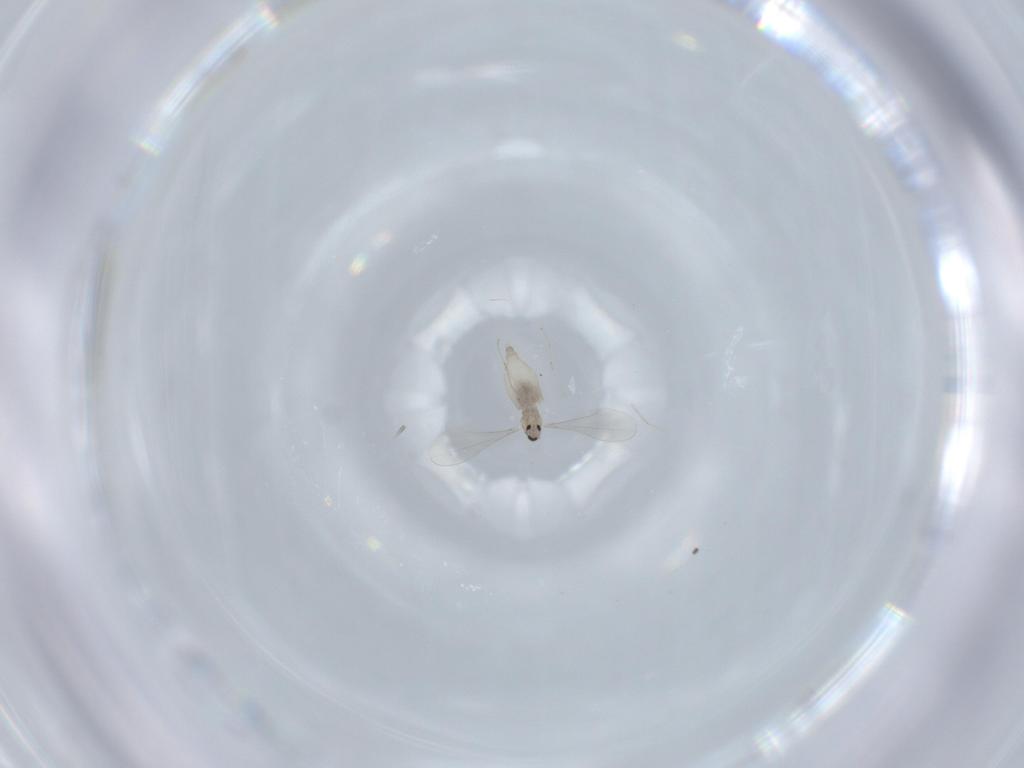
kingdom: Animalia
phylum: Arthropoda
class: Insecta
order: Diptera
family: Cecidomyiidae
